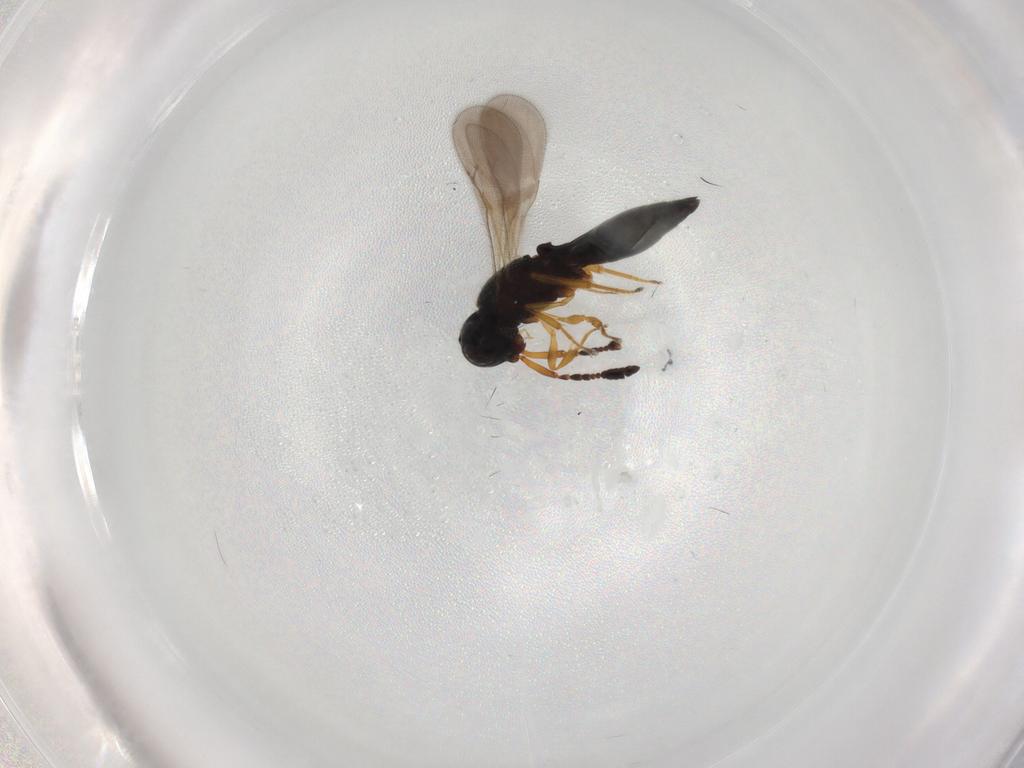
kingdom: Animalia
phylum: Arthropoda
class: Insecta
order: Hymenoptera
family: Scelionidae
